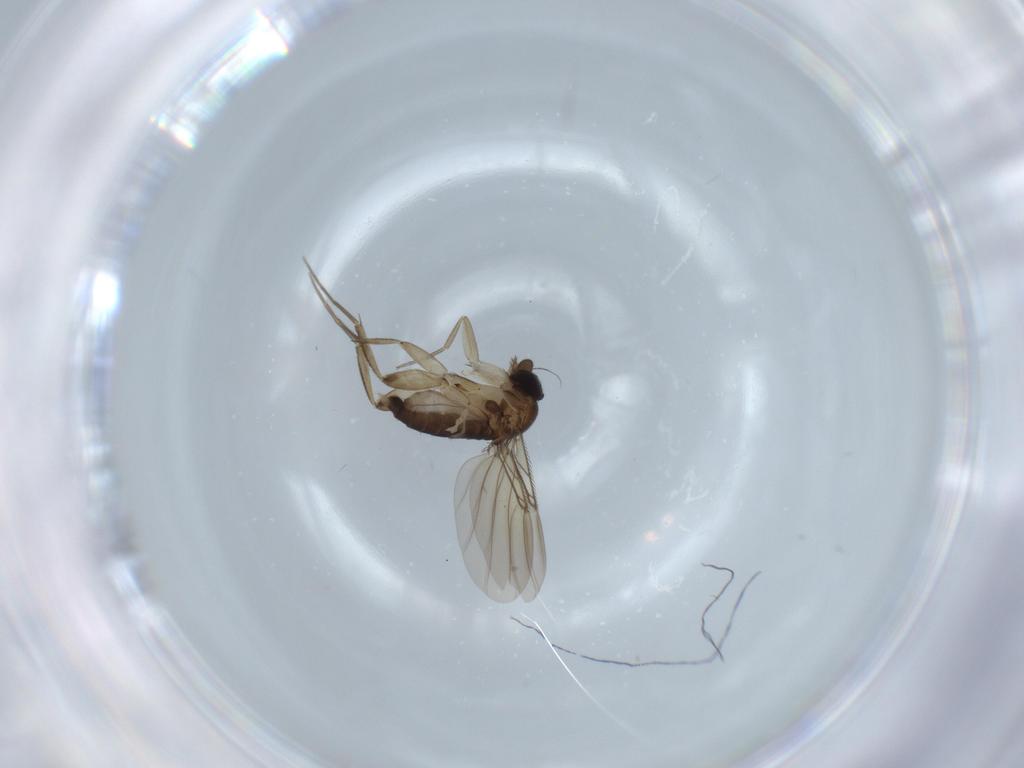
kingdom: Animalia
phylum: Arthropoda
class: Insecta
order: Diptera
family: Phoridae
